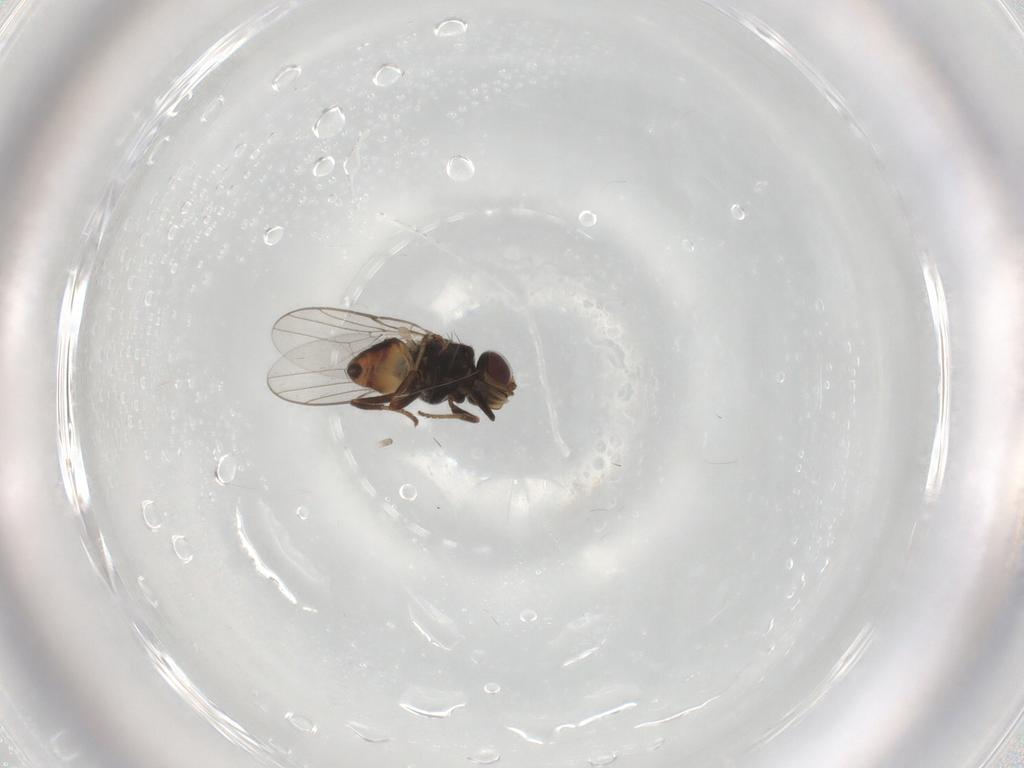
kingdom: Animalia
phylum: Arthropoda
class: Insecta
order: Diptera
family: Chloropidae
